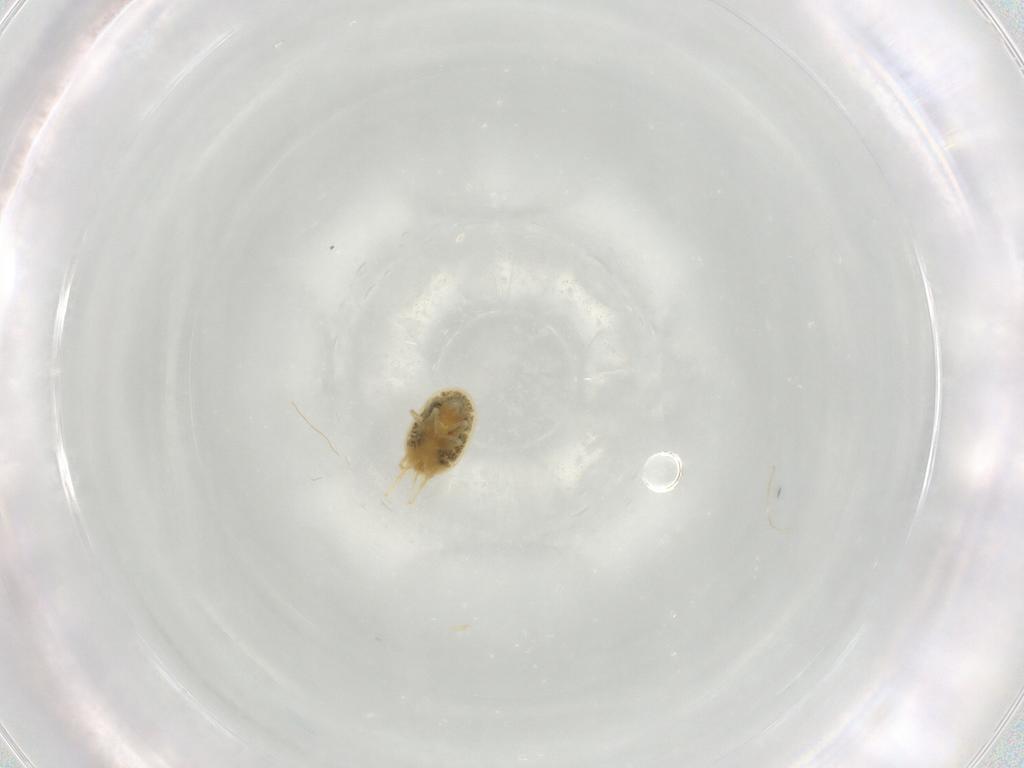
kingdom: Animalia
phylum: Arthropoda
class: Arachnida
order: Trombidiformes
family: Tetranychidae
